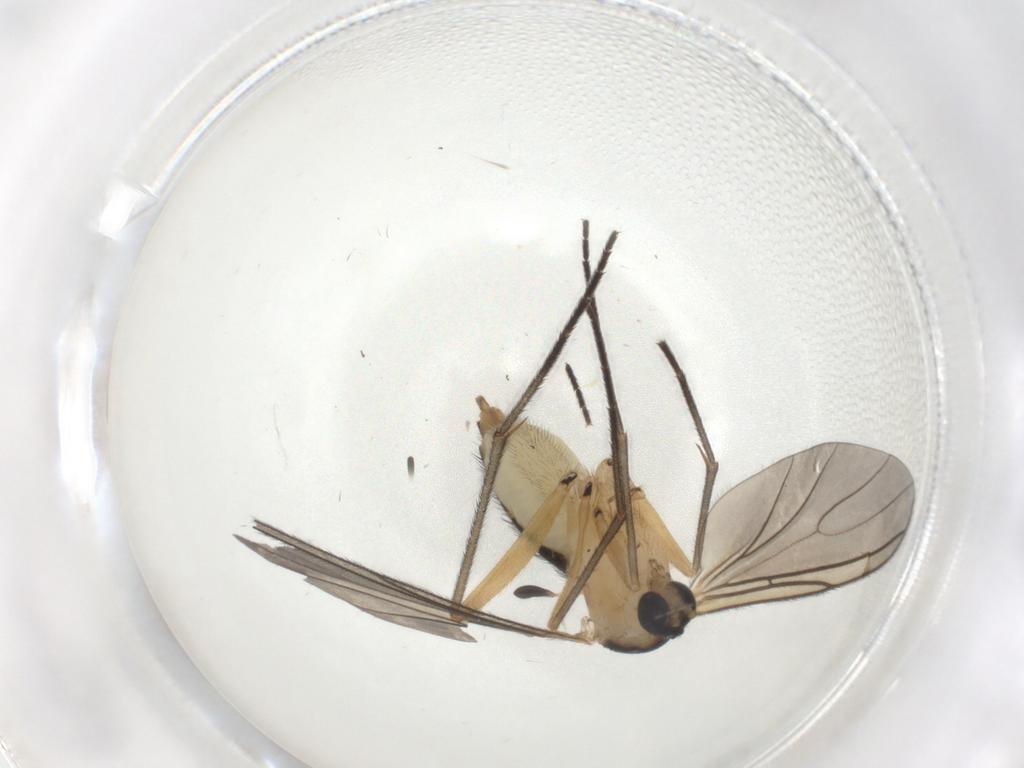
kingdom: Animalia
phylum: Arthropoda
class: Insecta
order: Diptera
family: Sciaridae
